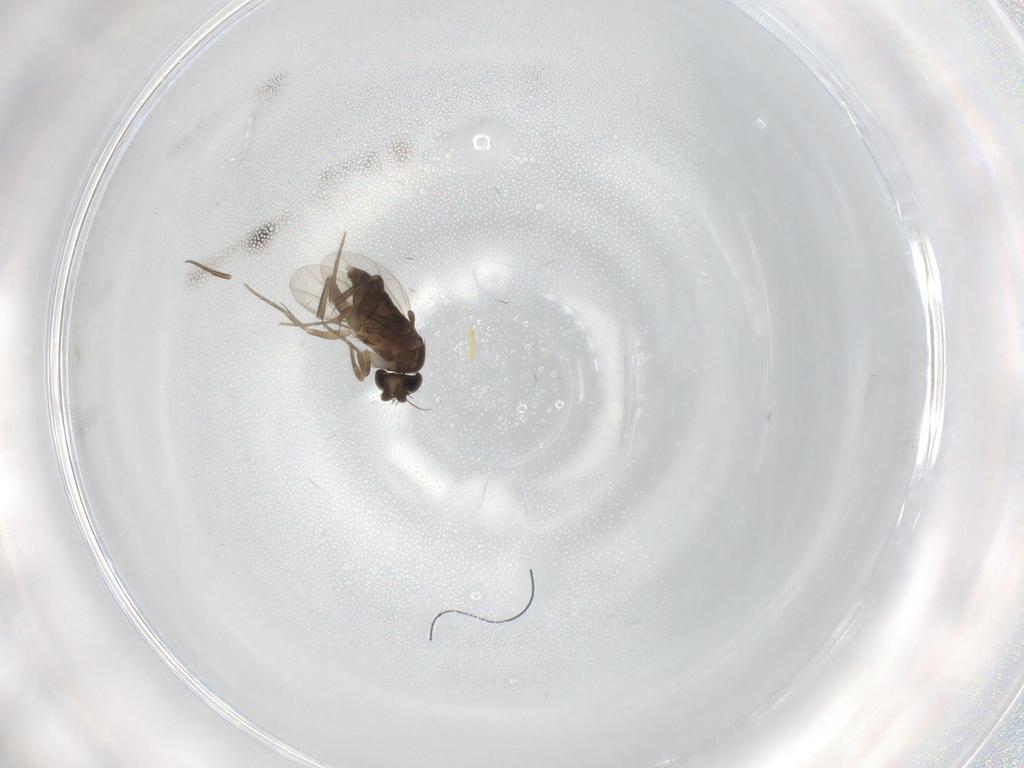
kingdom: Animalia
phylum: Arthropoda
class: Insecta
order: Diptera
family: Phoridae
